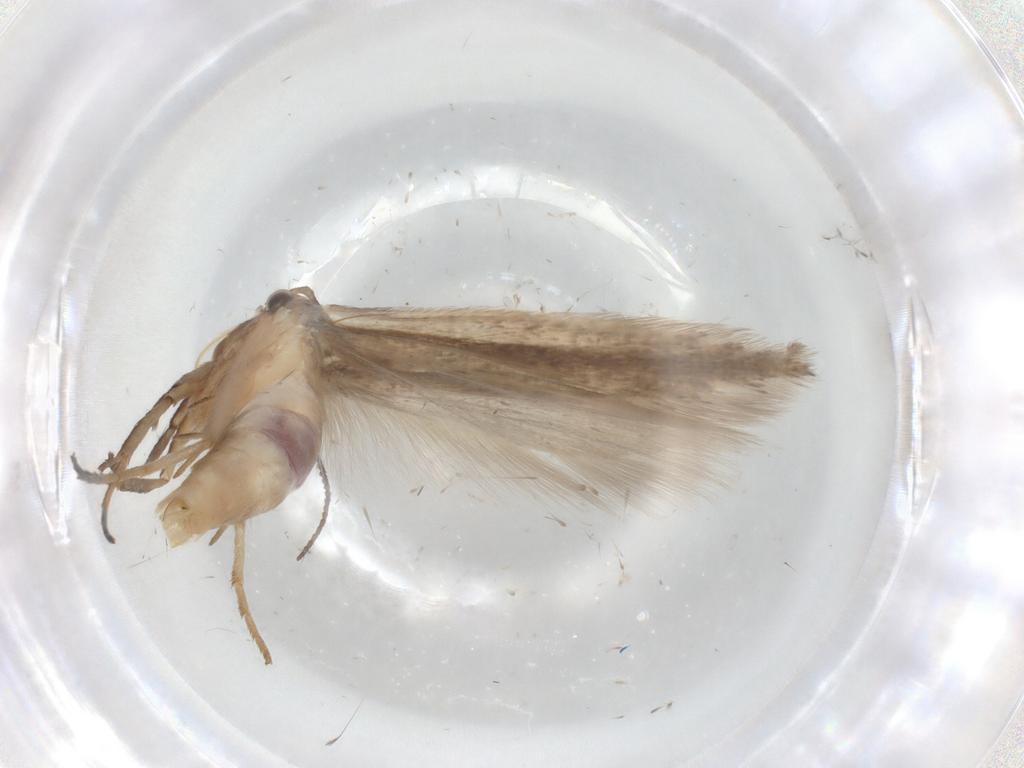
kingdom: Animalia
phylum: Arthropoda
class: Insecta
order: Lepidoptera
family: Gelechiidae
